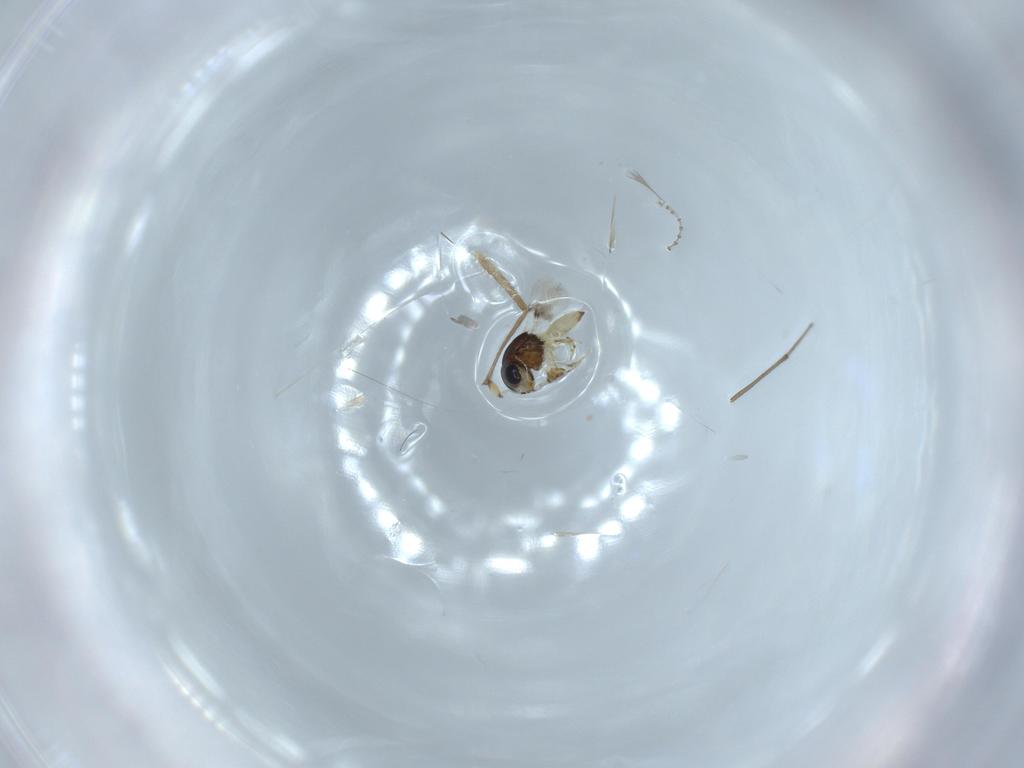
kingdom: Animalia
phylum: Arthropoda
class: Insecta
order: Hymenoptera
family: Scelionidae
